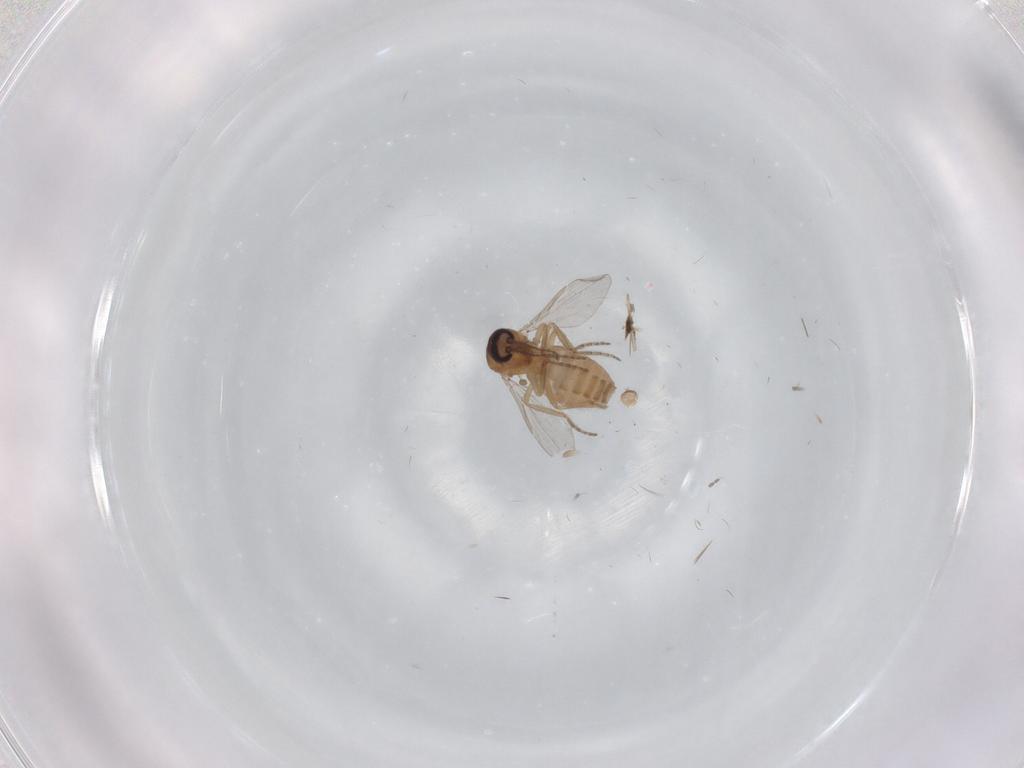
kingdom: Animalia
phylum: Arthropoda
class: Insecta
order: Diptera
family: Ceratopogonidae
